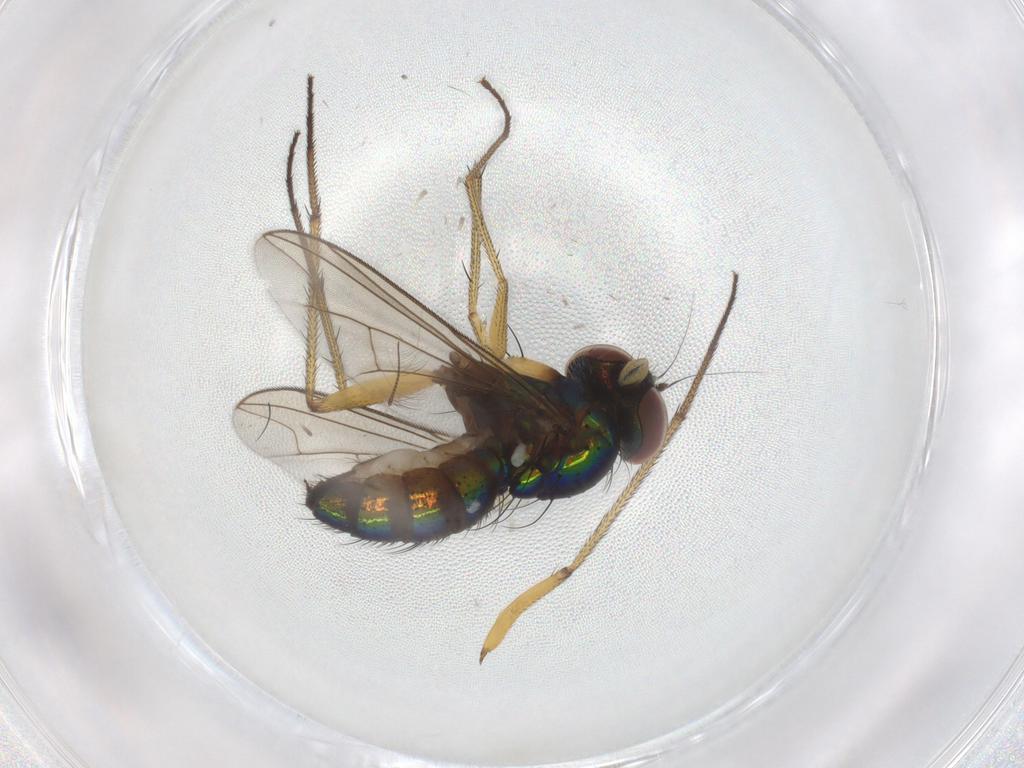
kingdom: Animalia
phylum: Arthropoda
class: Insecta
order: Diptera
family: Dolichopodidae
